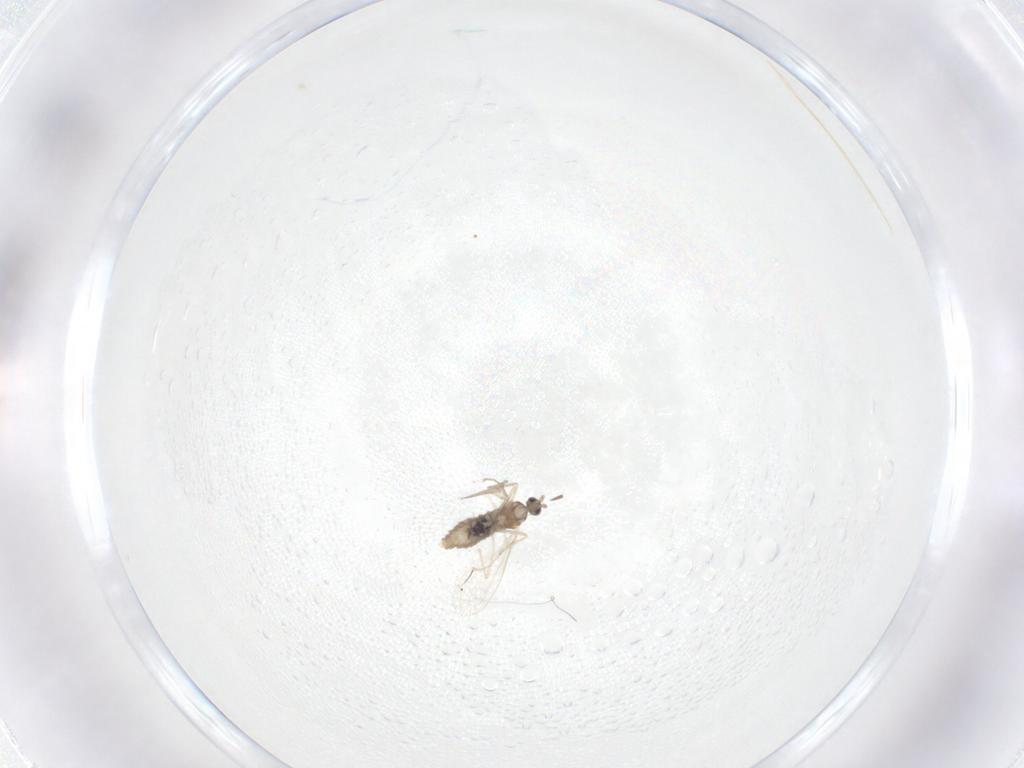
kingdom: Animalia
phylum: Arthropoda
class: Insecta
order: Diptera
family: Cecidomyiidae
